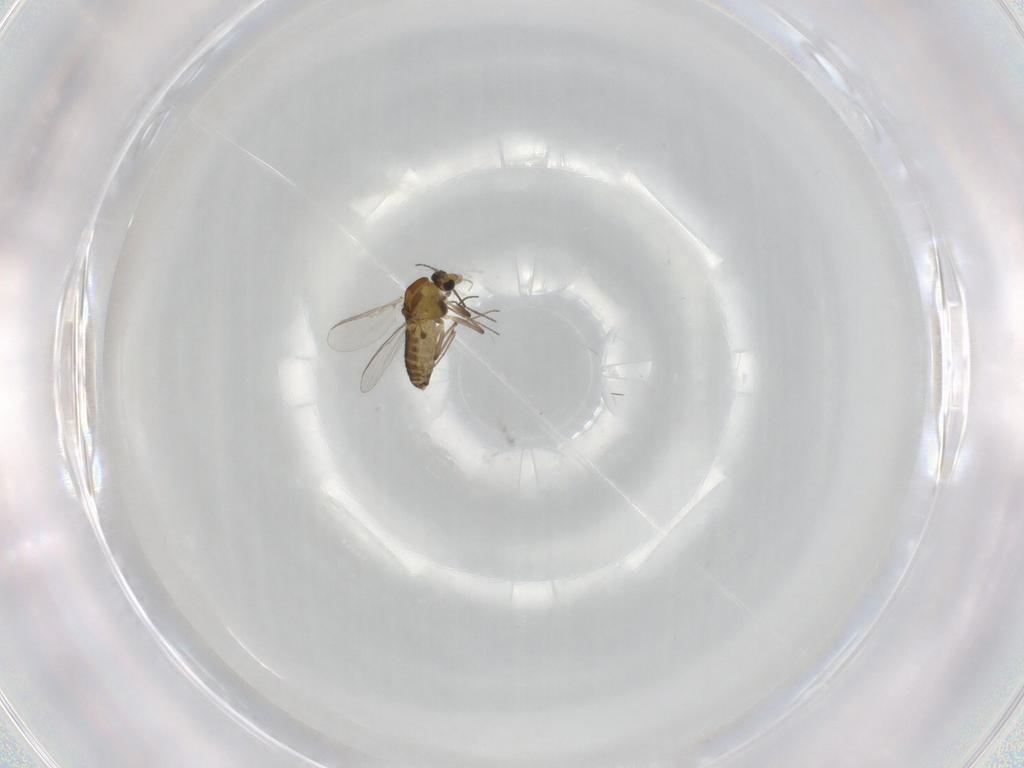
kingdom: Animalia
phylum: Arthropoda
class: Insecta
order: Diptera
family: Chironomidae
